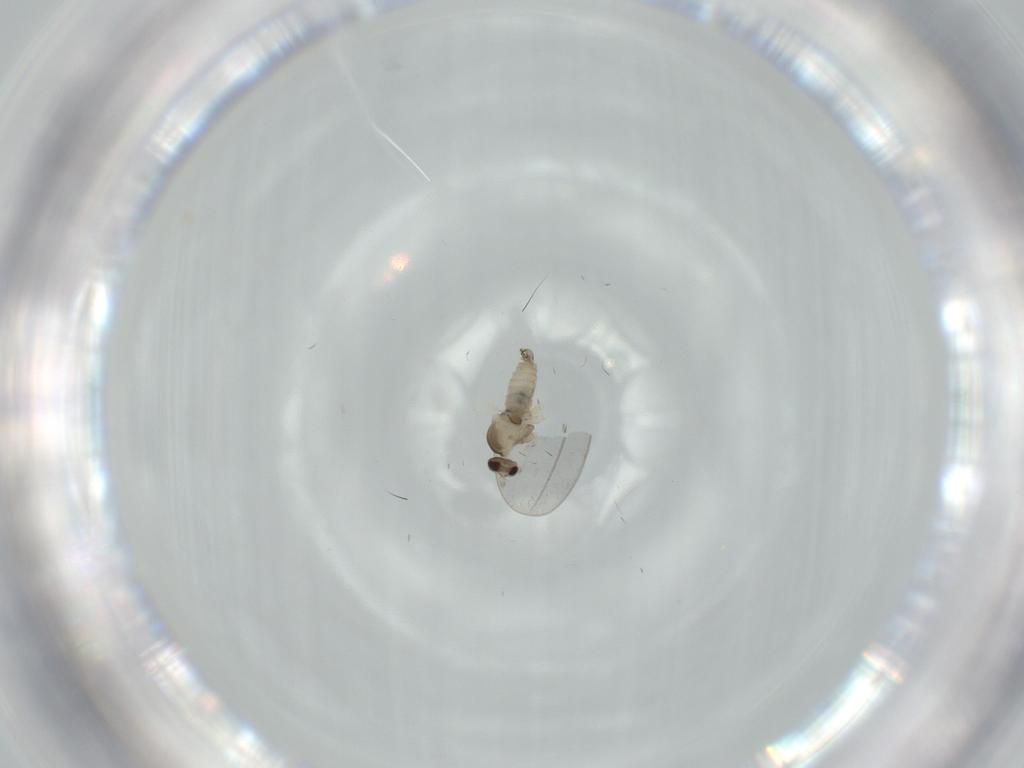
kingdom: Animalia
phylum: Arthropoda
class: Insecta
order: Diptera
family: Cecidomyiidae
